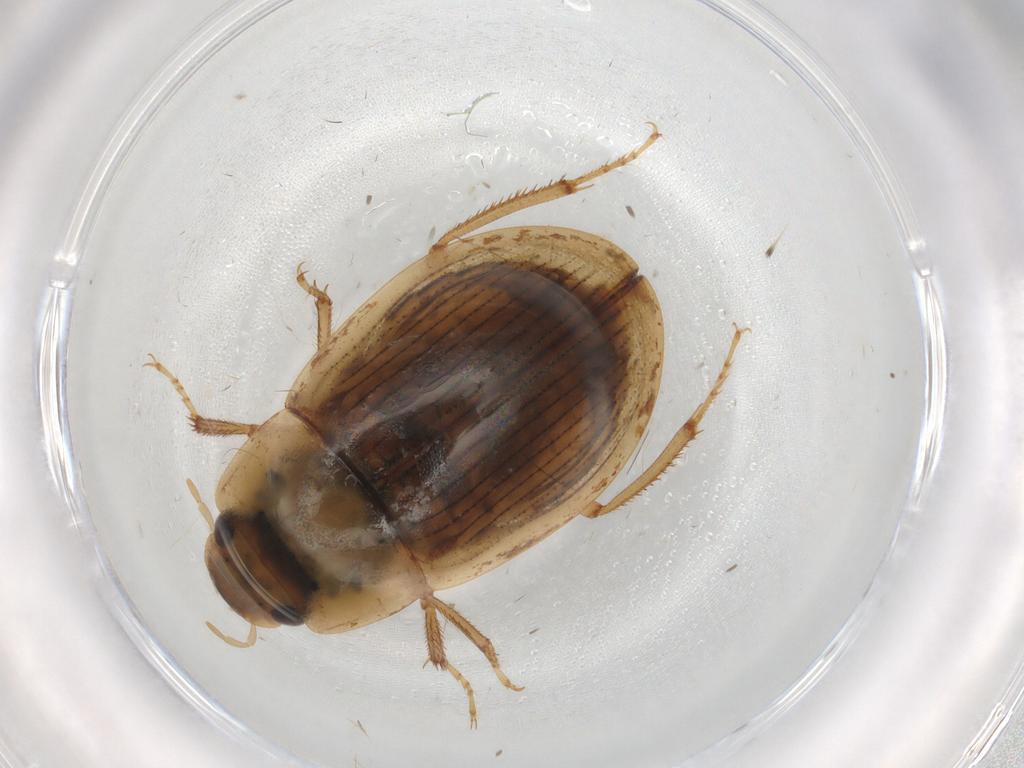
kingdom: Animalia
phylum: Arthropoda
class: Insecta
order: Coleoptera
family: Hydrophilidae
